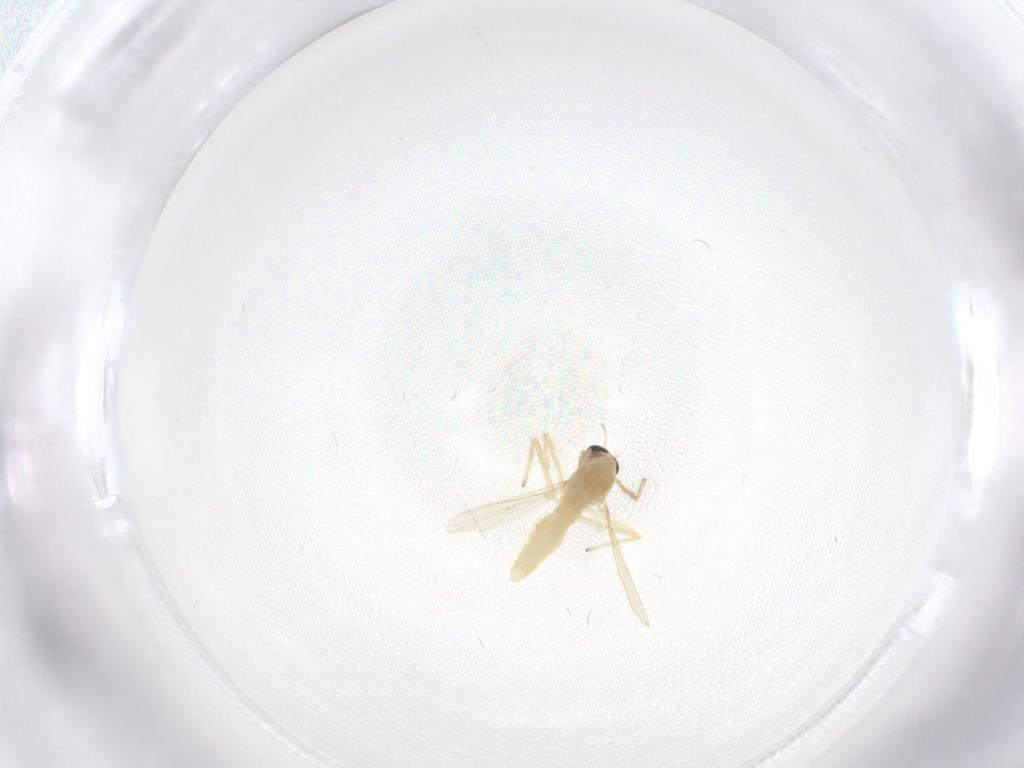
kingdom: Animalia
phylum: Arthropoda
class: Insecta
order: Diptera
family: Chironomidae
